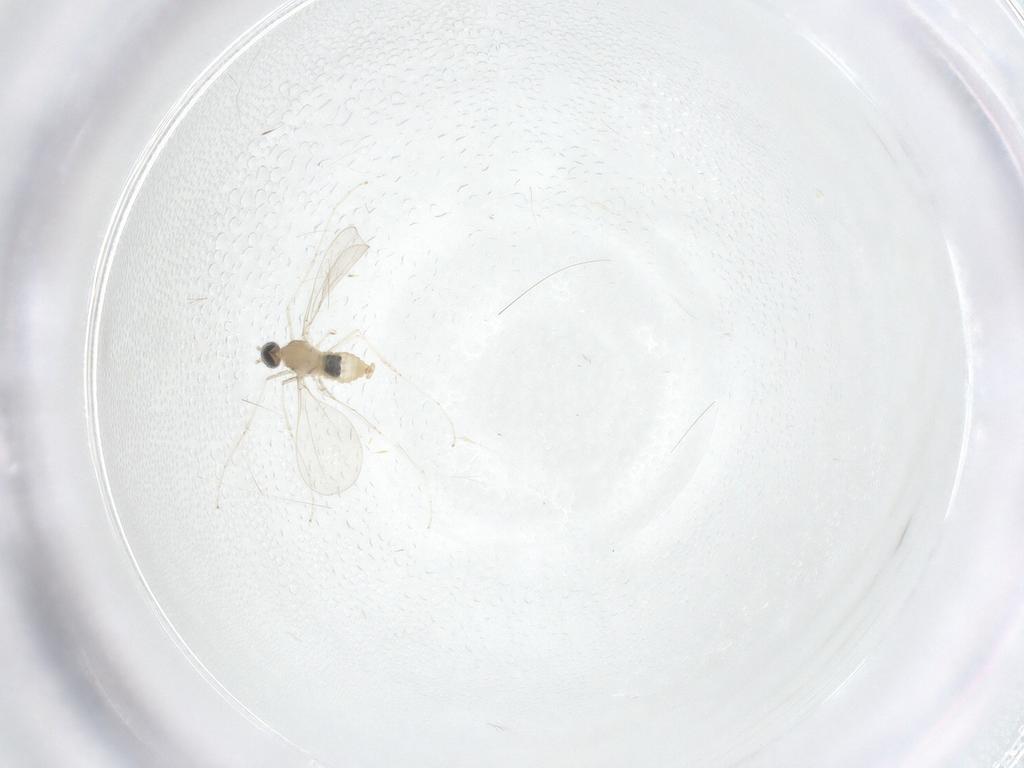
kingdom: Animalia
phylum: Arthropoda
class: Insecta
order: Diptera
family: Cecidomyiidae
